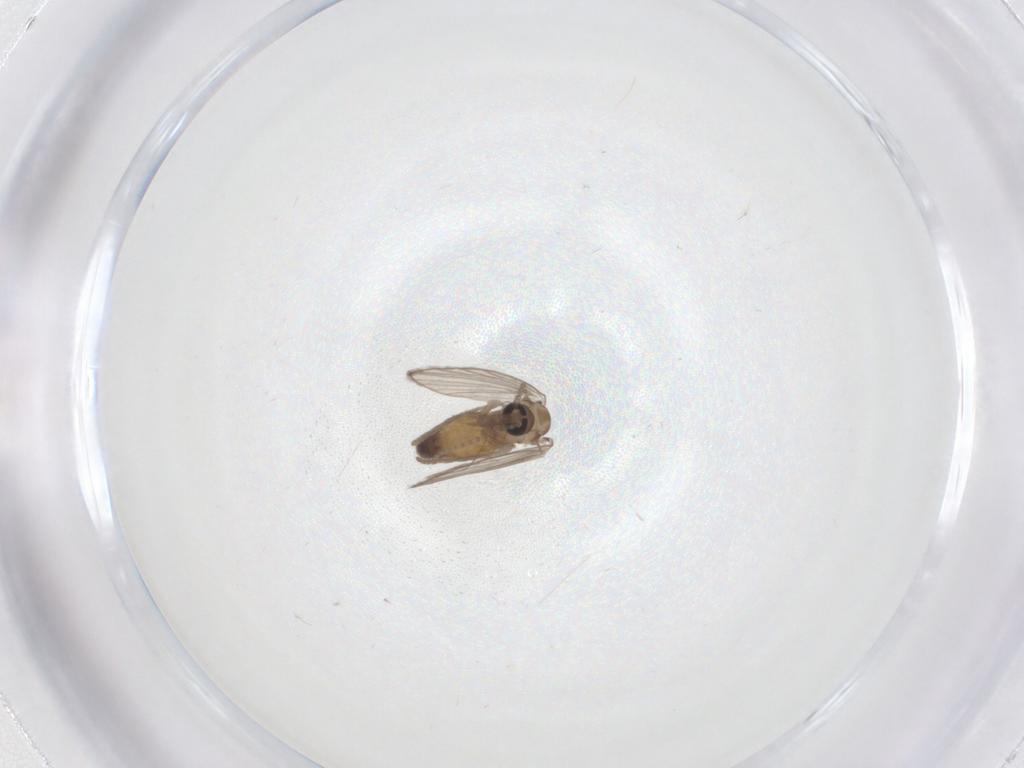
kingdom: Animalia
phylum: Arthropoda
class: Insecta
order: Diptera
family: Psychodidae
